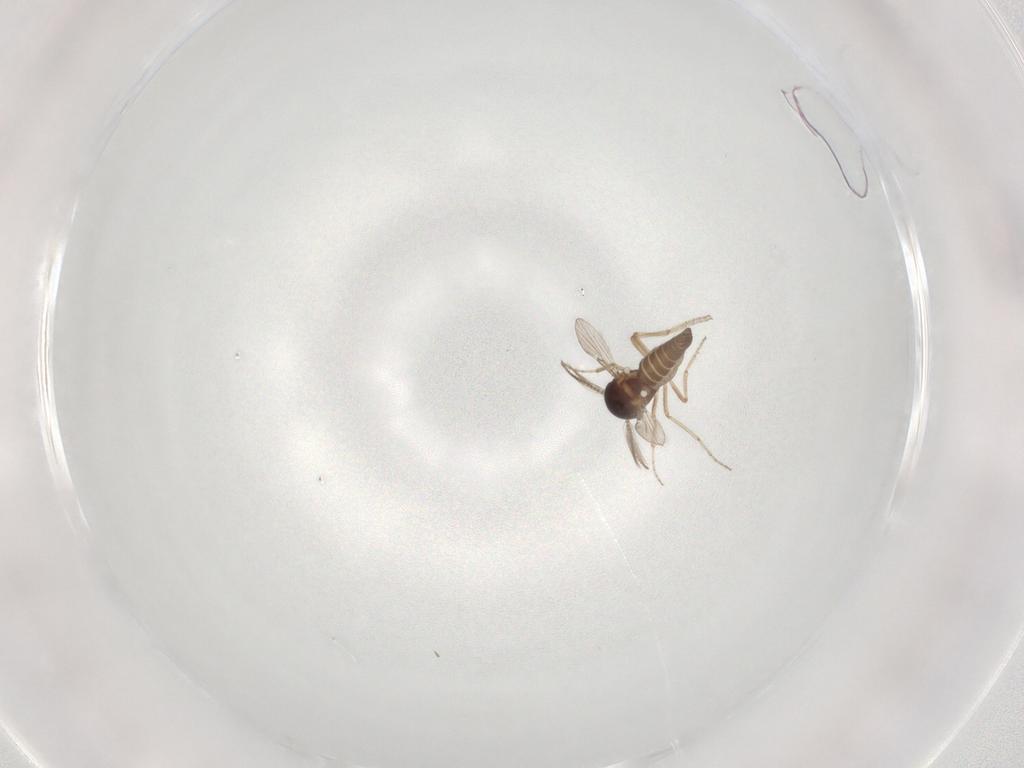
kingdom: Animalia
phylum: Arthropoda
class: Insecta
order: Diptera
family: Ceratopogonidae
